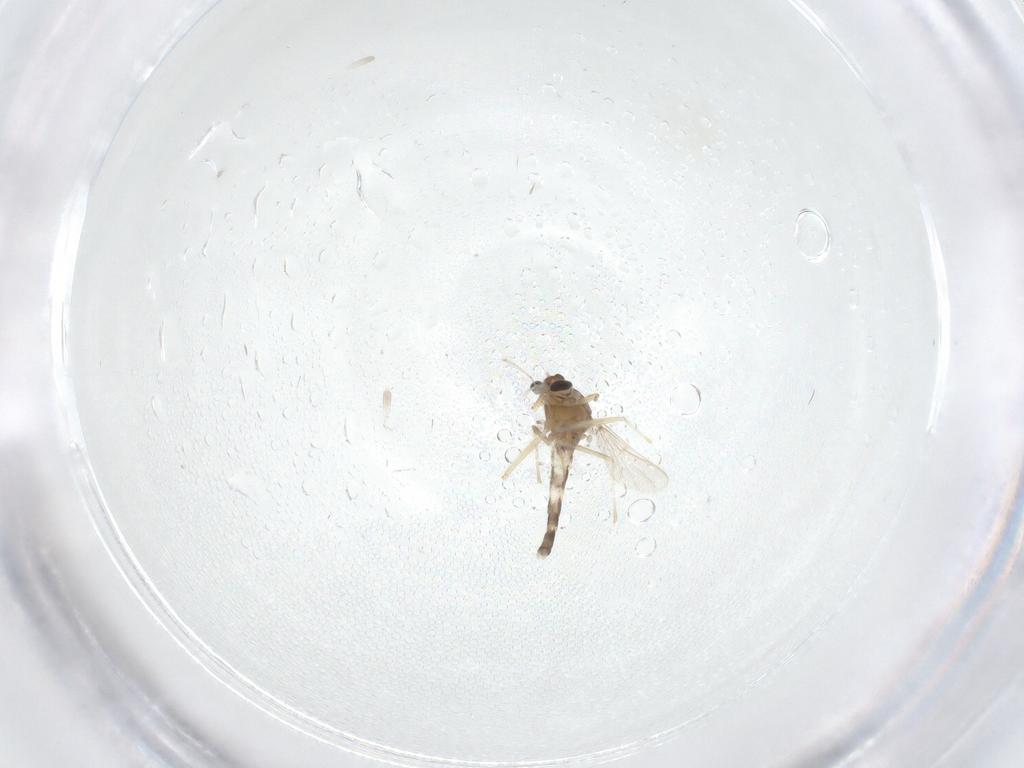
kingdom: Animalia
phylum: Arthropoda
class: Insecta
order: Diptera
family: Chironomidae
